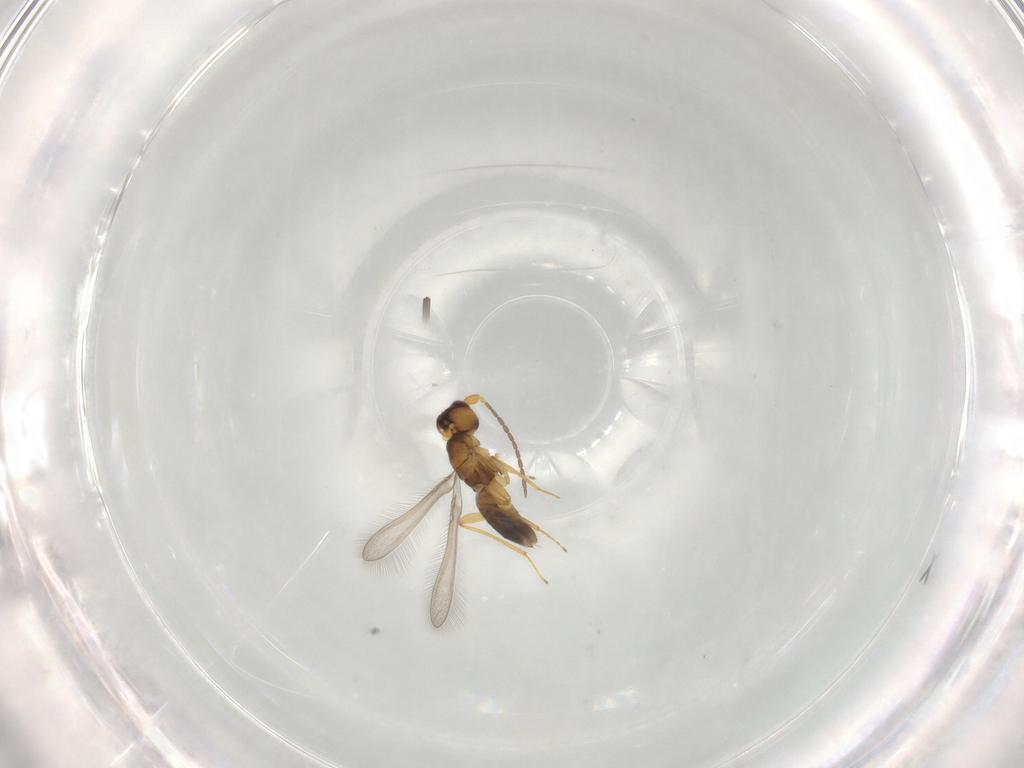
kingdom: Animalia
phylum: Arthropoda
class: Insecta
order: Hymenoptera
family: Mymaridae
